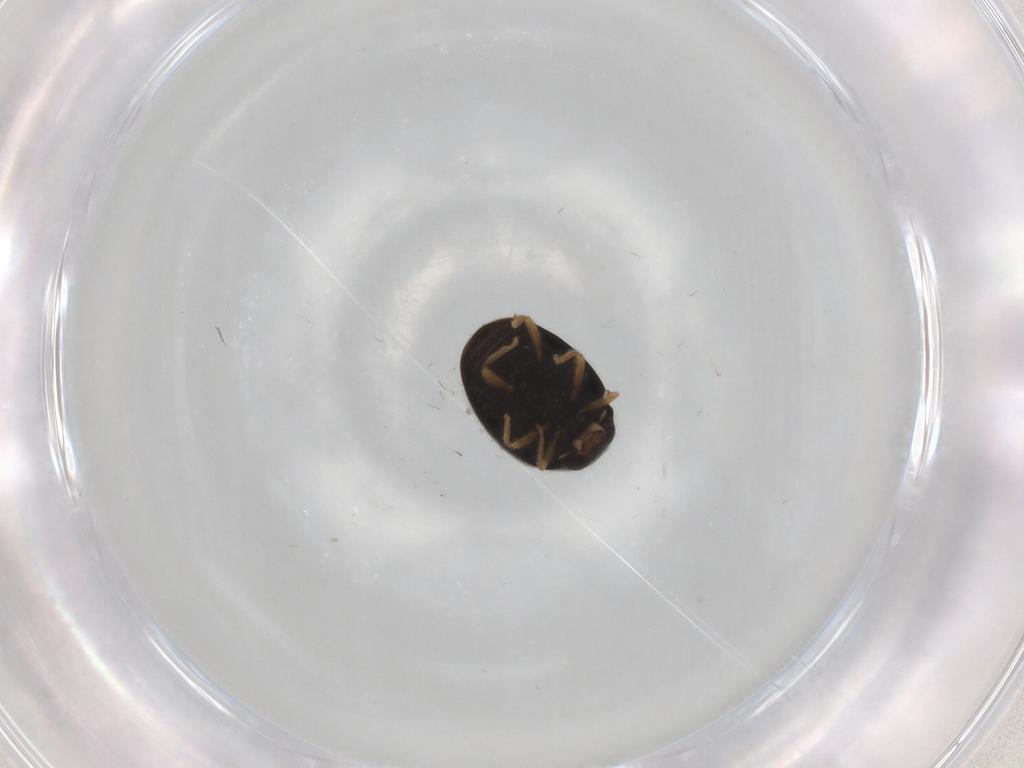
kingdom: Animalia
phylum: Arthropoda
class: Insecta
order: Coleoptera
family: Coccinellidae
